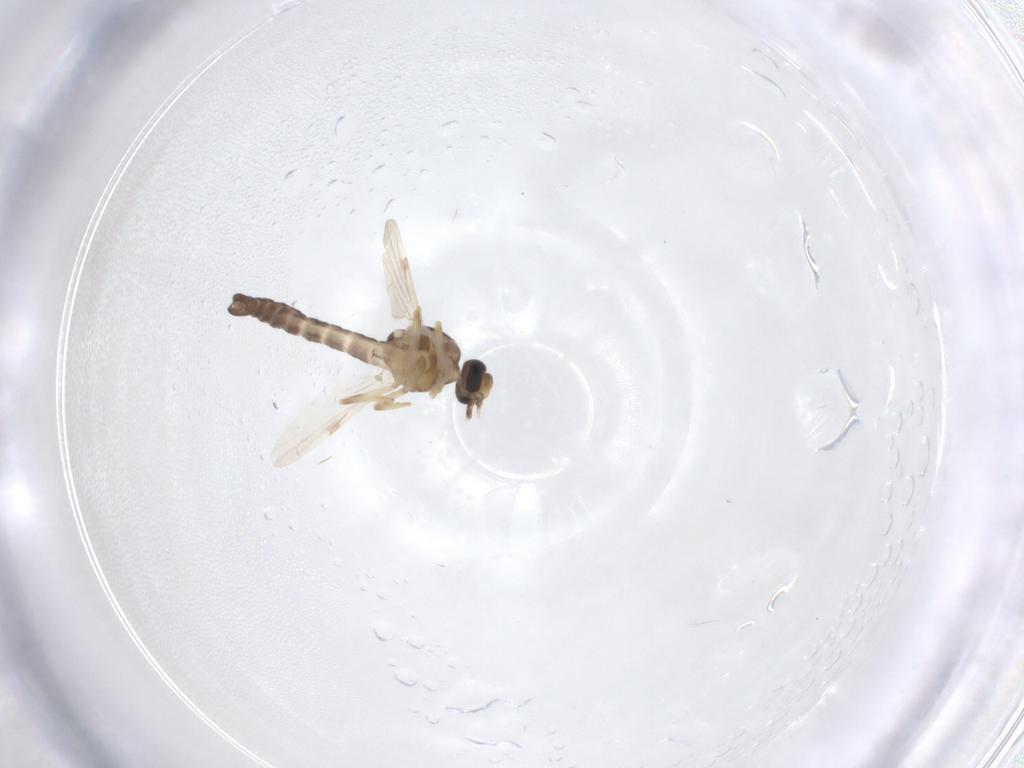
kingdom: Animalia
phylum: Arthropoda
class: Insecta
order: Diptera
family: Ceratopogonidae
